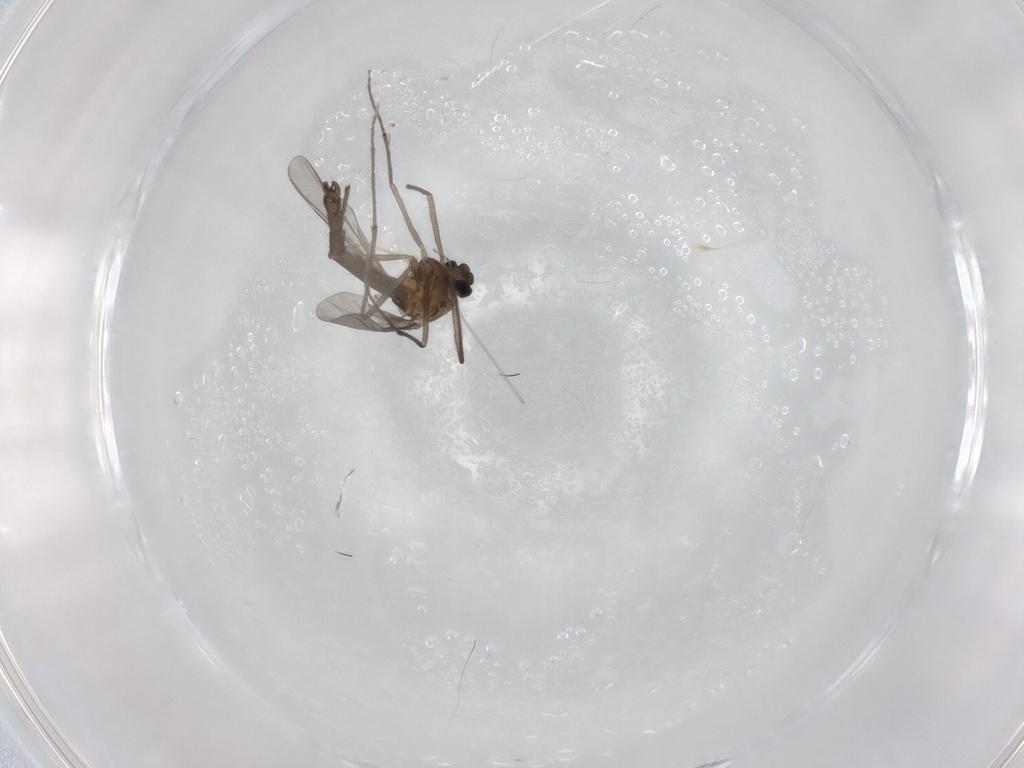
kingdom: Animalia
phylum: Arthropoda
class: Insecta
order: Diptera
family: Chironomidae
